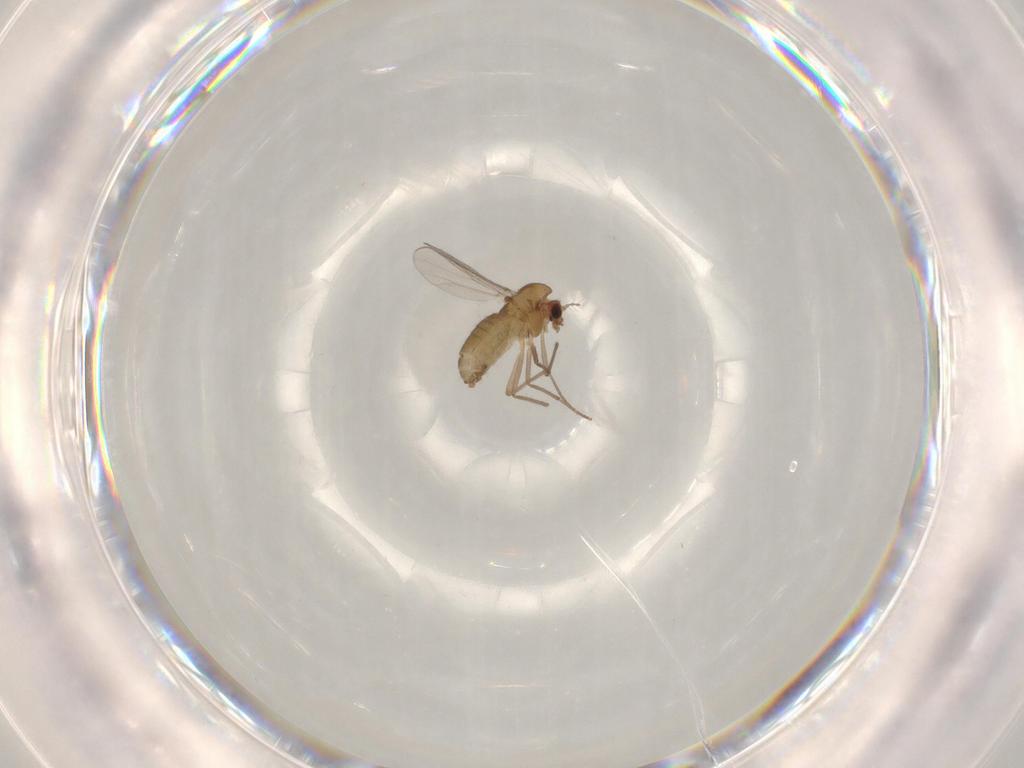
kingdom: Animalia
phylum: Arthropoda
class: Insecta
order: Diptera
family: Chironomidae
